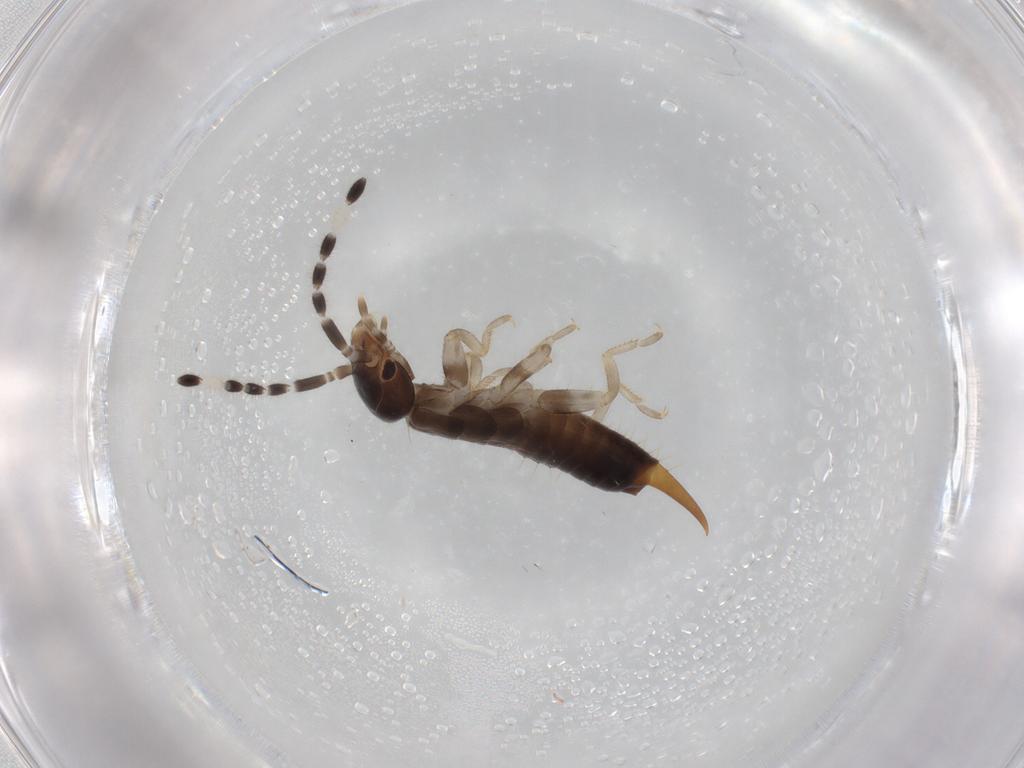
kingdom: Animalia
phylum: Arthropoda
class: Insecta
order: Dermaptera
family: Anisolabididae
